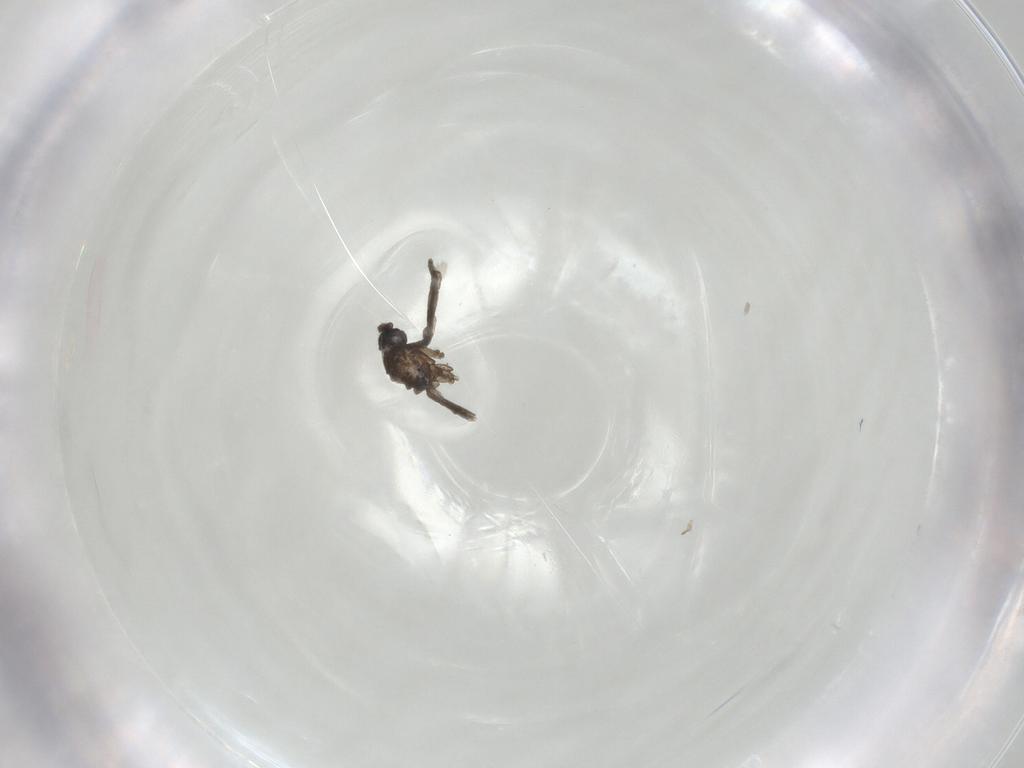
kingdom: Animalia
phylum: Arthropoda
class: Insecta
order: Diptera
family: Cecidomyiidae
